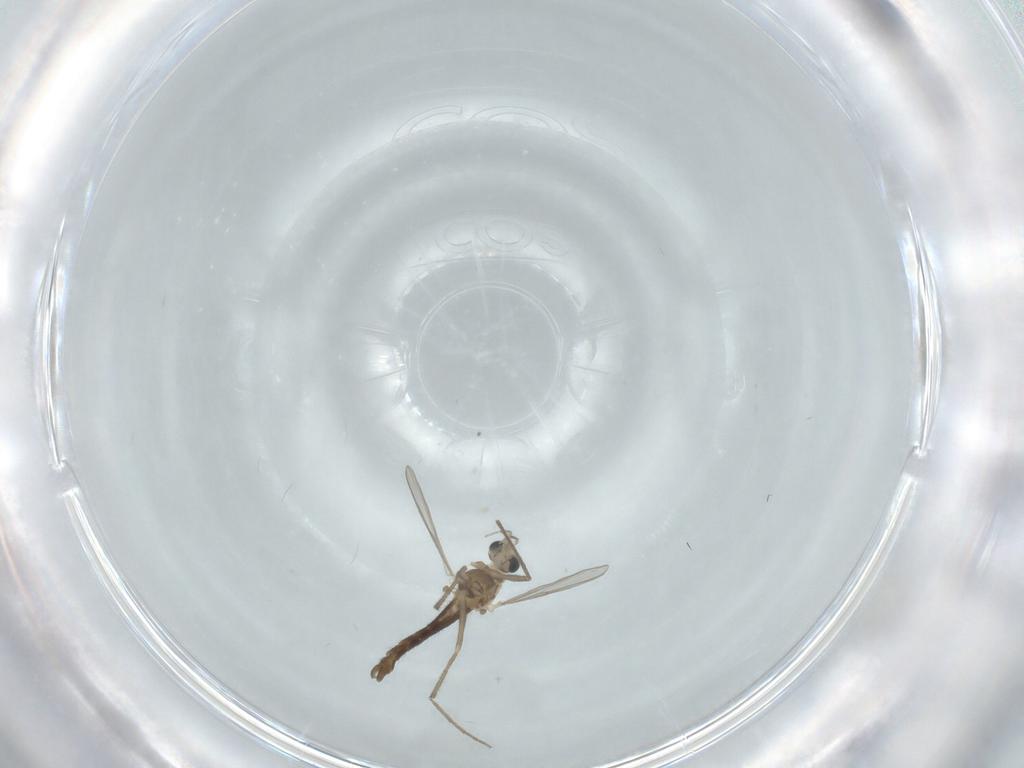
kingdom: Animalia
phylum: Arthropoda
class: Insecta
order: Diptera
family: Chironomidae
